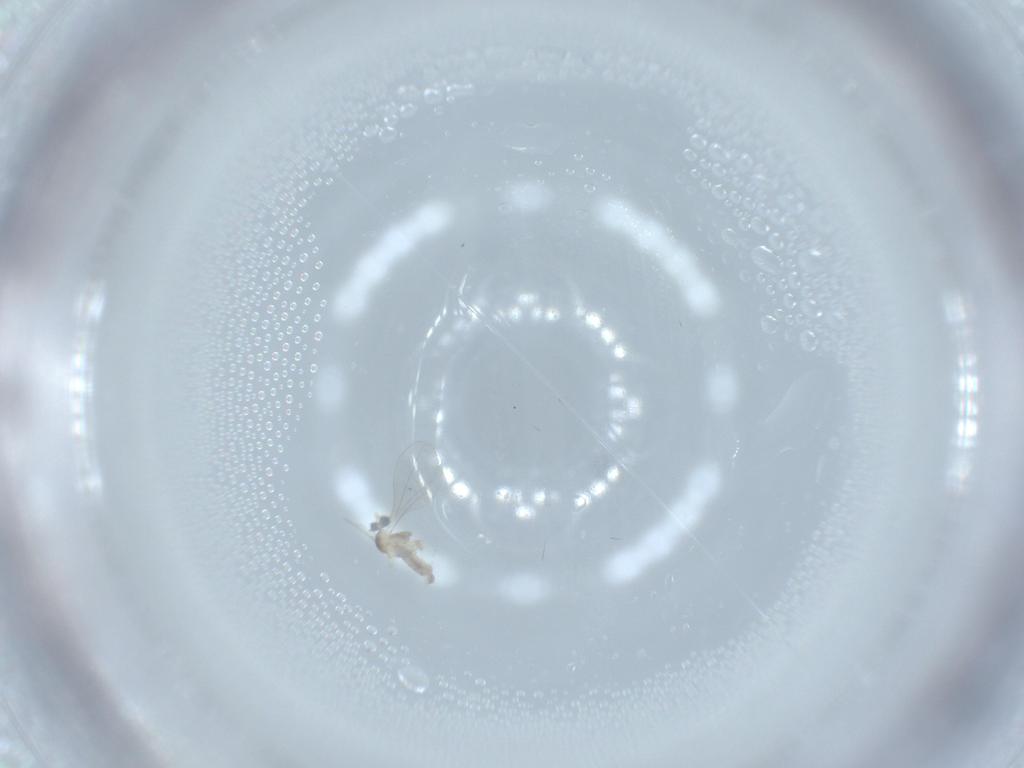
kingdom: Animalia
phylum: Arthropoda
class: Insecta
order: Diptera
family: Cecidomyiidae
